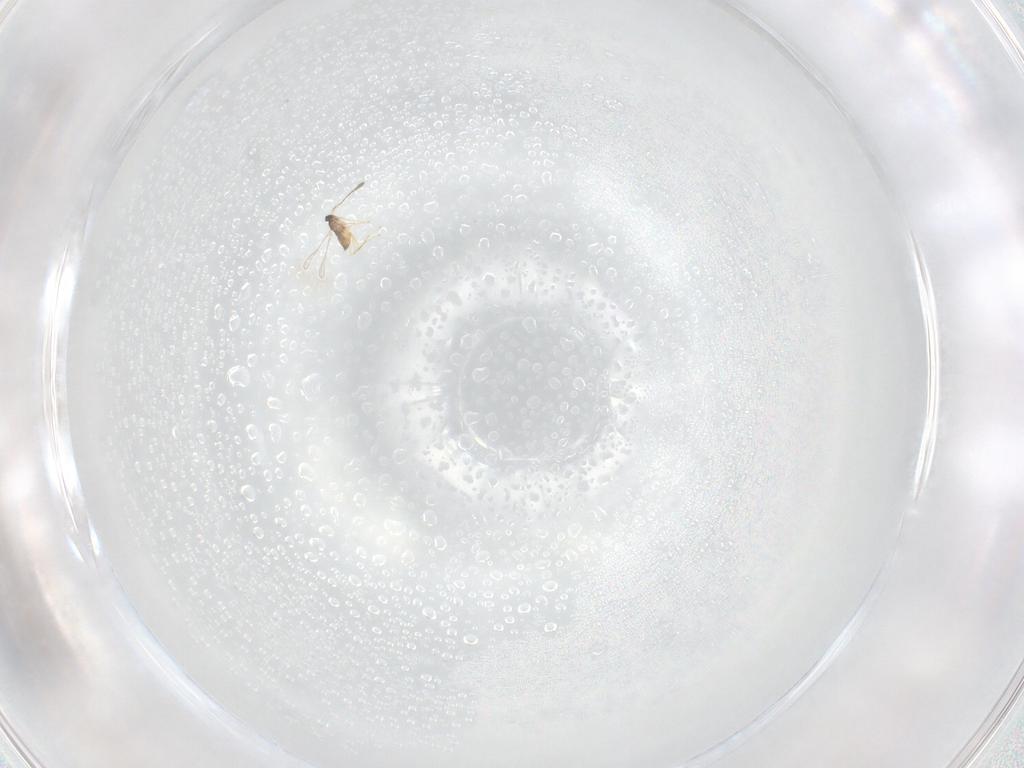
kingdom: Animalia
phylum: Arthropoda
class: Insecta
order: Hymenoptera
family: Mymaridae
